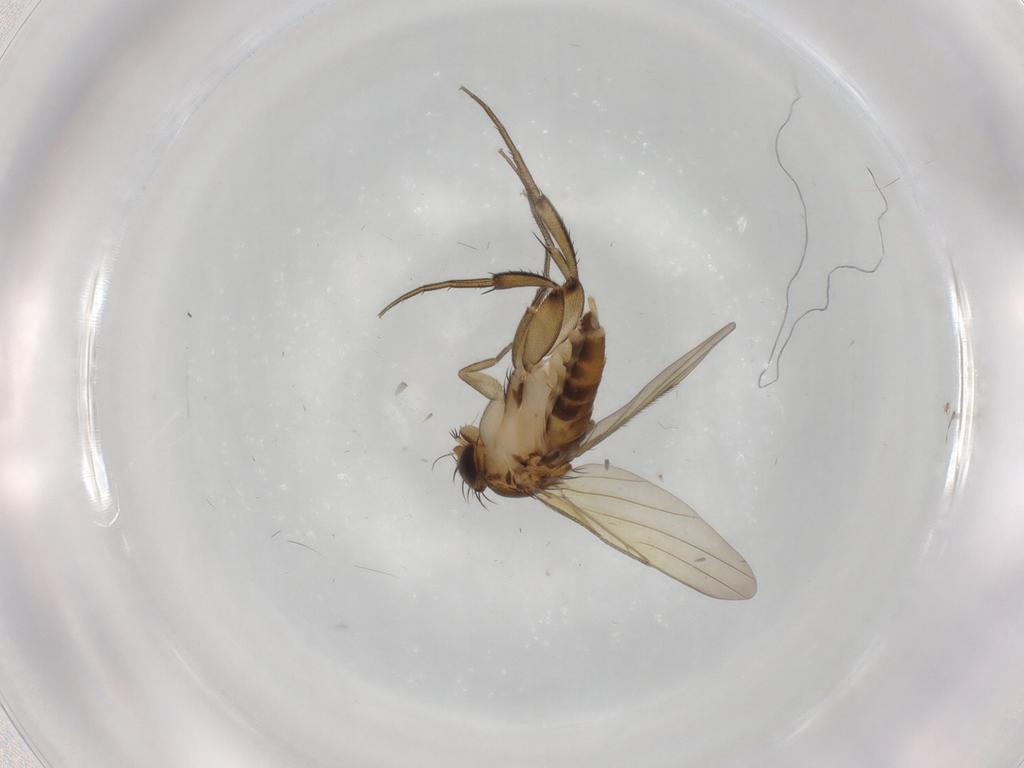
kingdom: Animalia
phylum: Arthropoda
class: Insecta
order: Diptera
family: Phoridae
